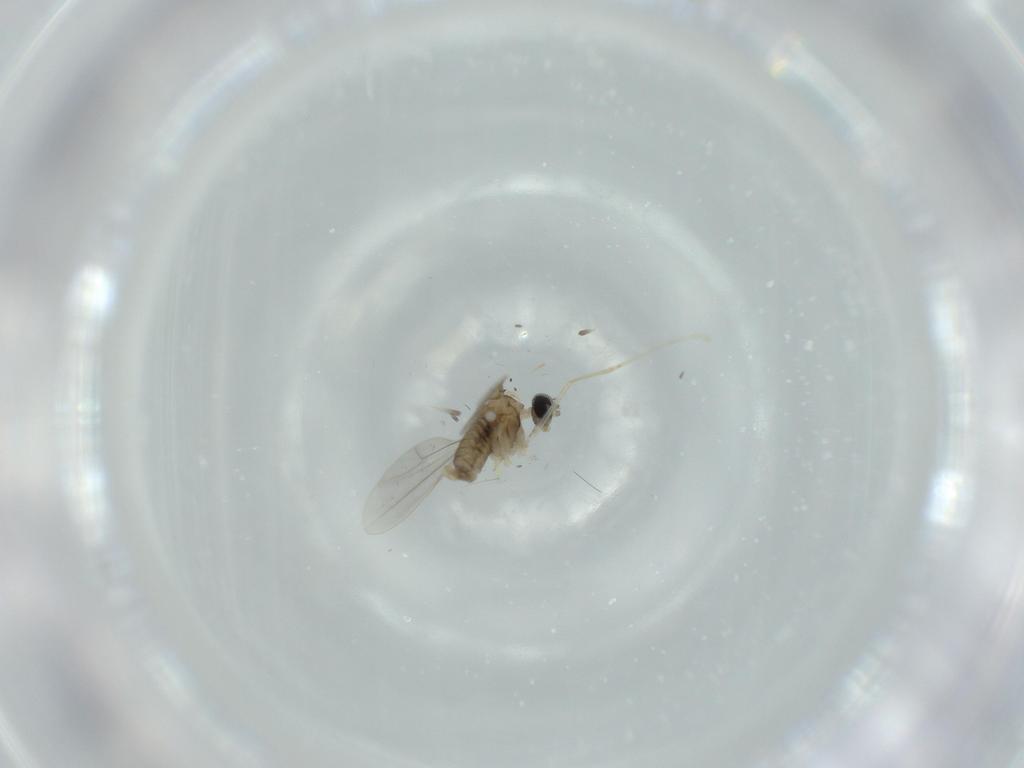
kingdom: Animalia
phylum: Arthropoda
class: Insecta
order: Diptera
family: Cecidomyiidae
